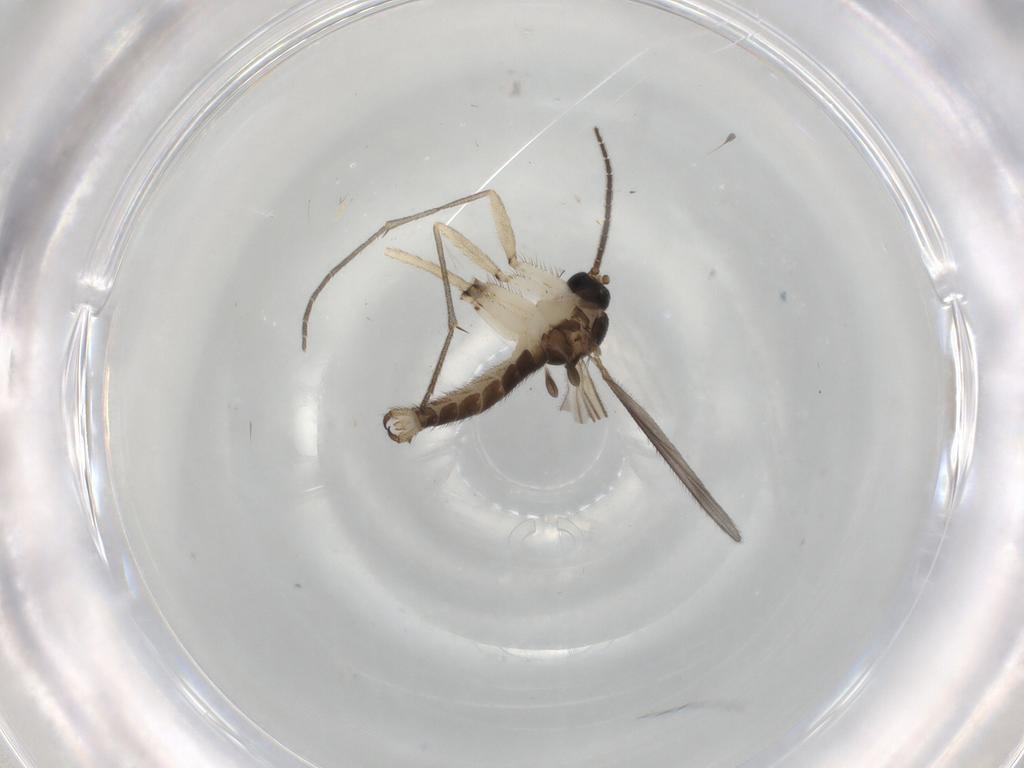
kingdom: Animalia
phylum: Arthropoda
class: Insecta
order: Diptera
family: Sciaridae
